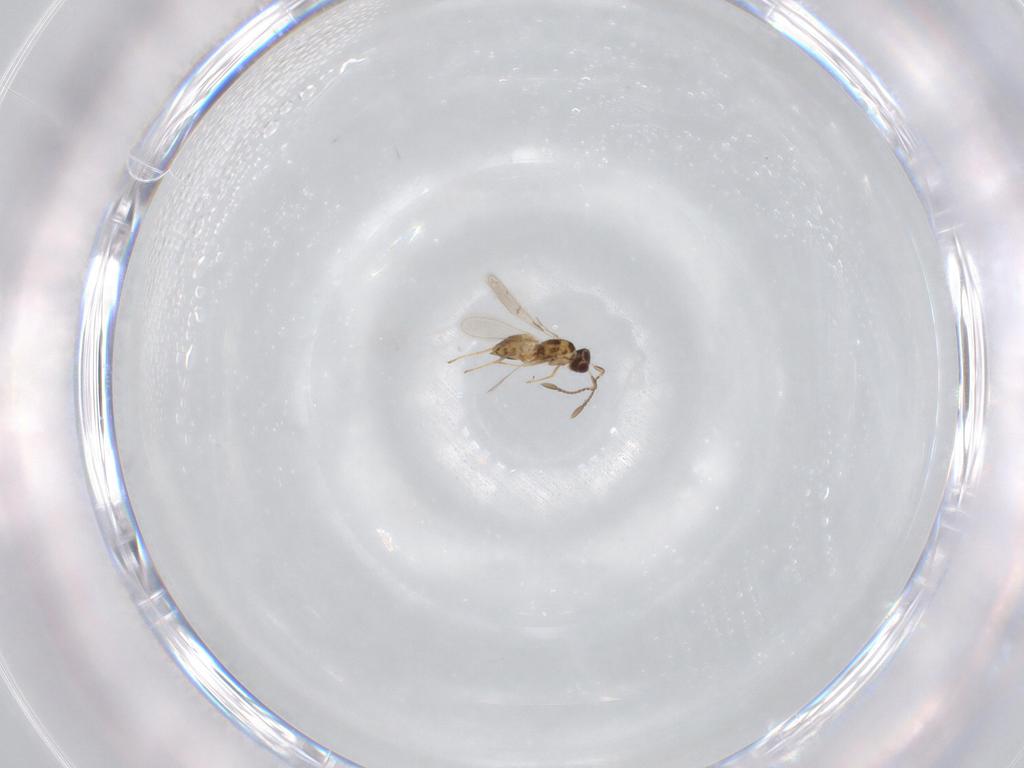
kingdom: Animalia
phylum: Arthropoda
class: Insecta
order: Hymenoptera
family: Mymaridae
